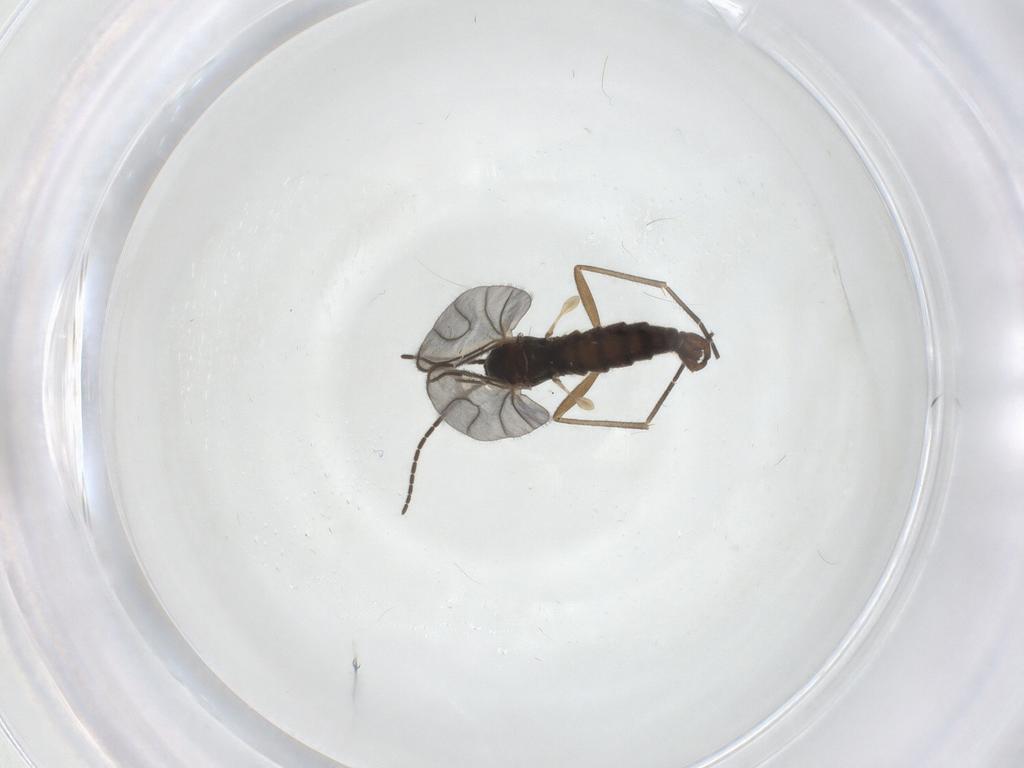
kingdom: Animalia
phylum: Arthropoda
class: Insecta
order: Diptera
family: Sciaridae
